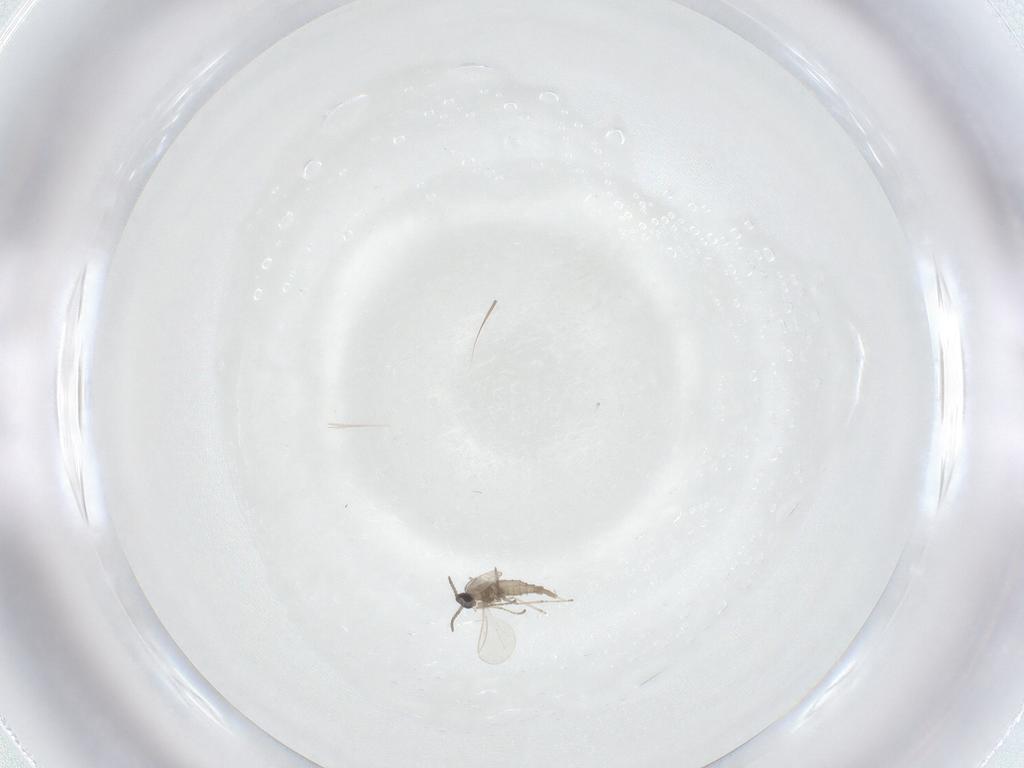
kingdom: Animalia
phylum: Arthropoda
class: Insecta
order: Diptera
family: Cecidomyiidae
